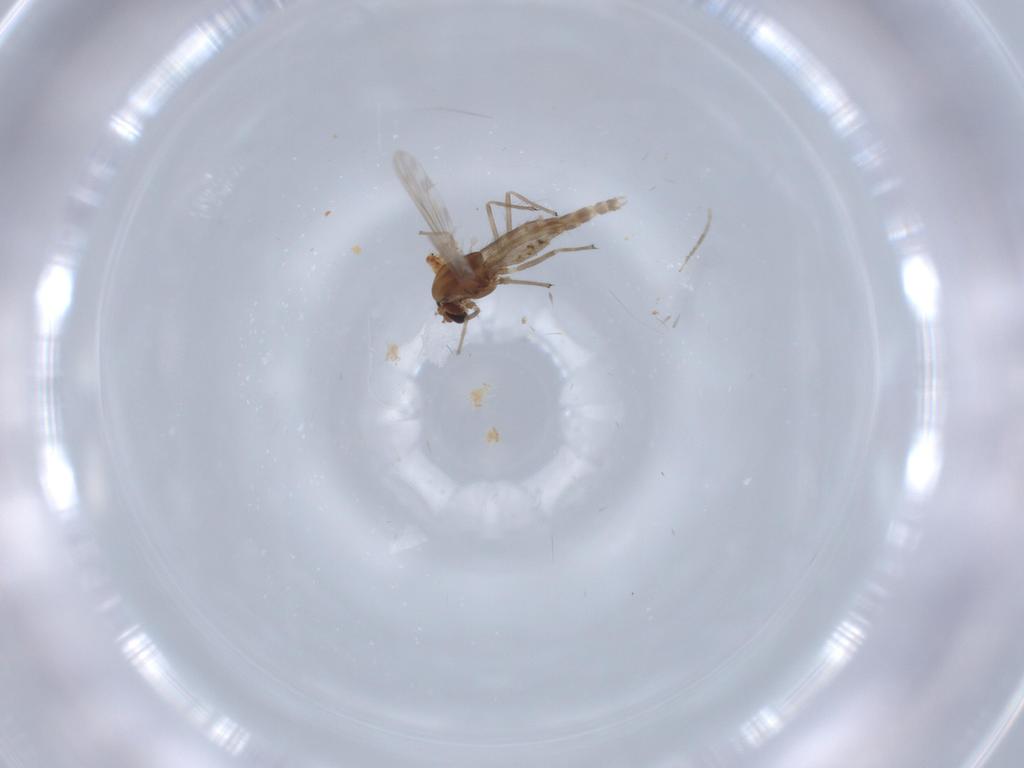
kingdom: Animalia
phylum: Arthropoda
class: Insecta
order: Diptera
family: Chironomidae
